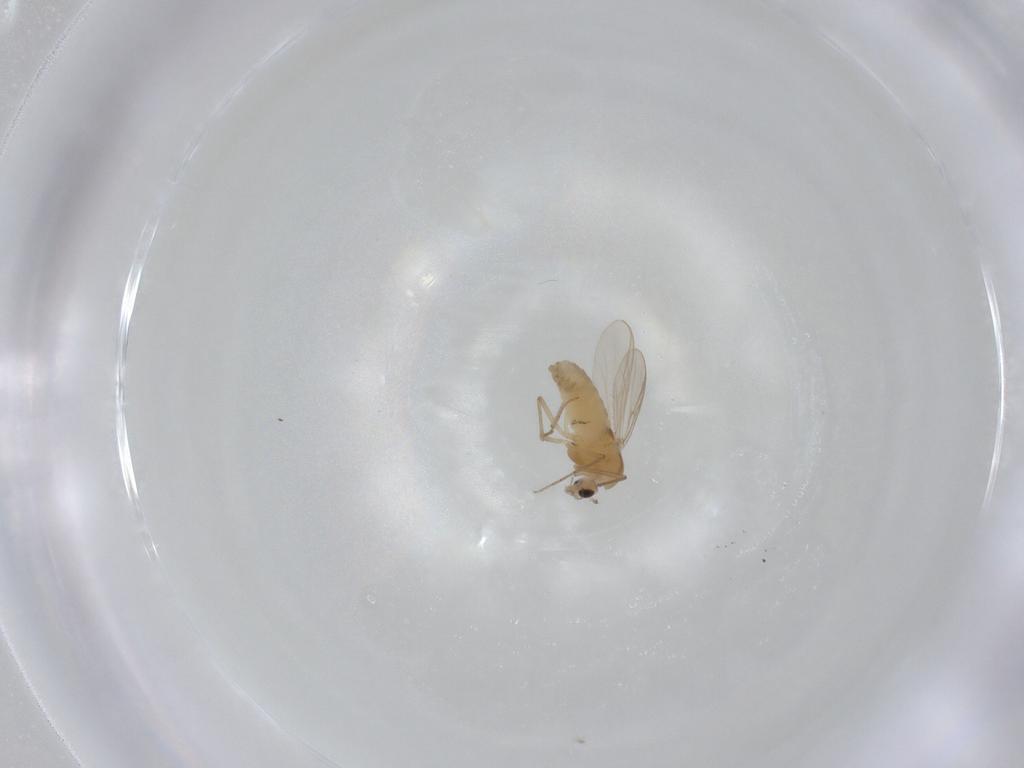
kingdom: Animalia
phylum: Arthropoda
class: Insecta
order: Diptera
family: Chironomidae
